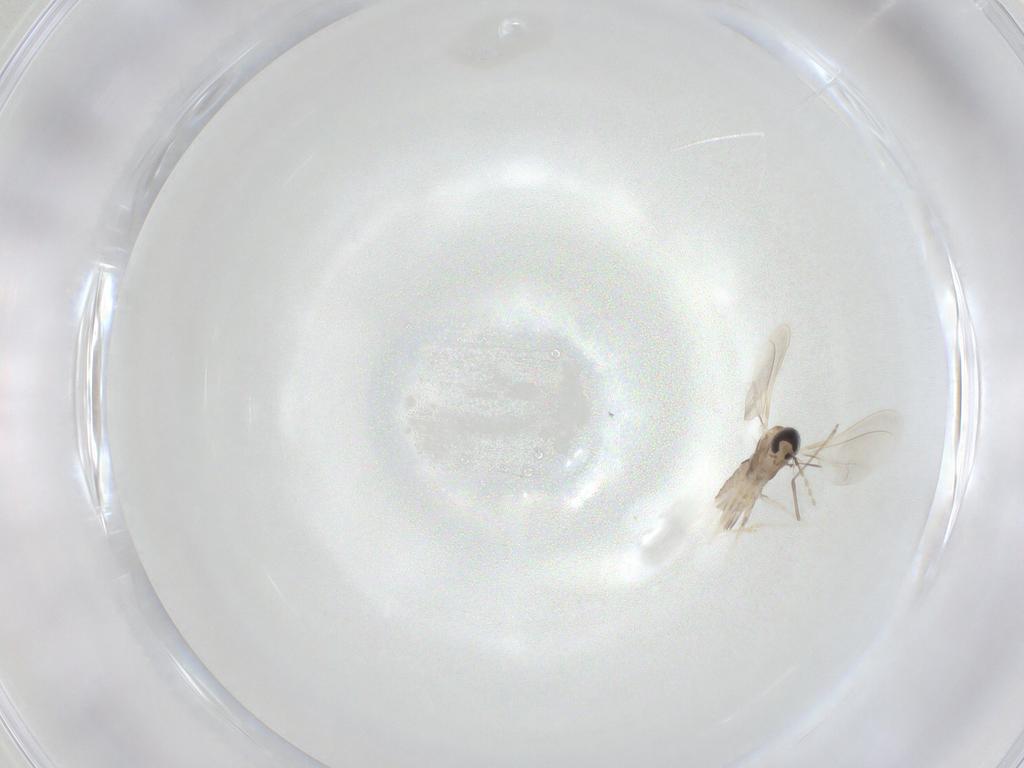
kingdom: Animalia
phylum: Arthropoda
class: Insecta
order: Diptera
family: Cecidomyiidae
